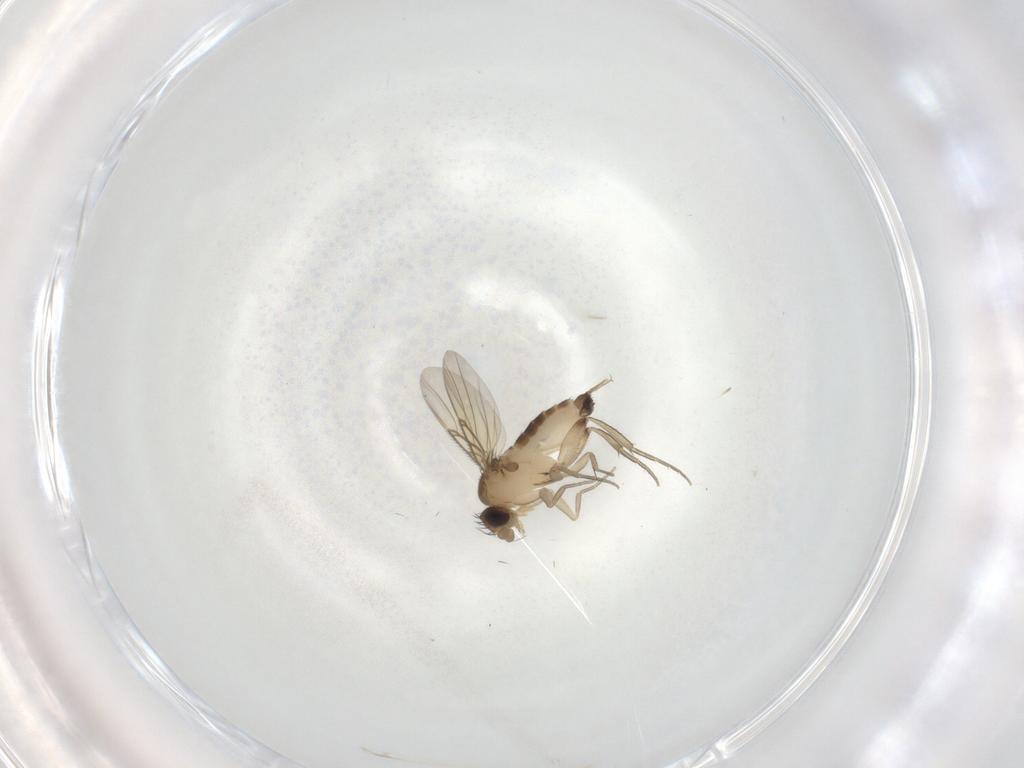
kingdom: Animalia
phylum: Arthropoda
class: Insecta
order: Diptera
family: Phoridae
